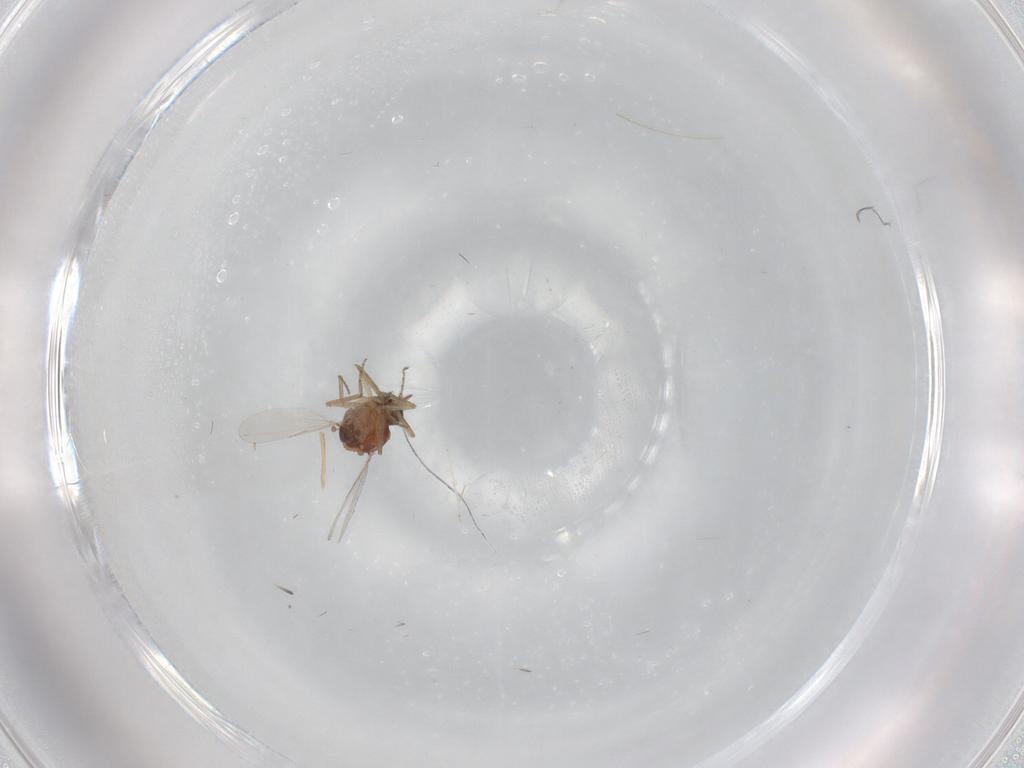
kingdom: Animalia
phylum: Arthropoda
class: Insecta
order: Diptera
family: Ceratopogonidae
